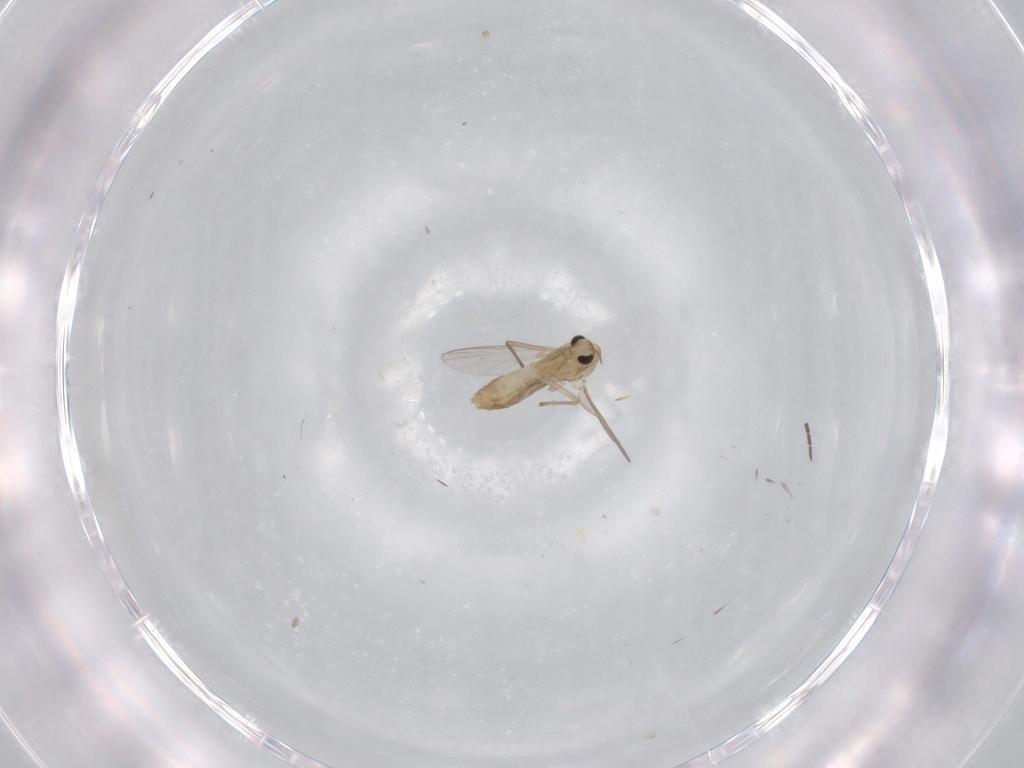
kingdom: Animalia
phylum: Arthropoda
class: Insecta
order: Diptera
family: Chironomidae
